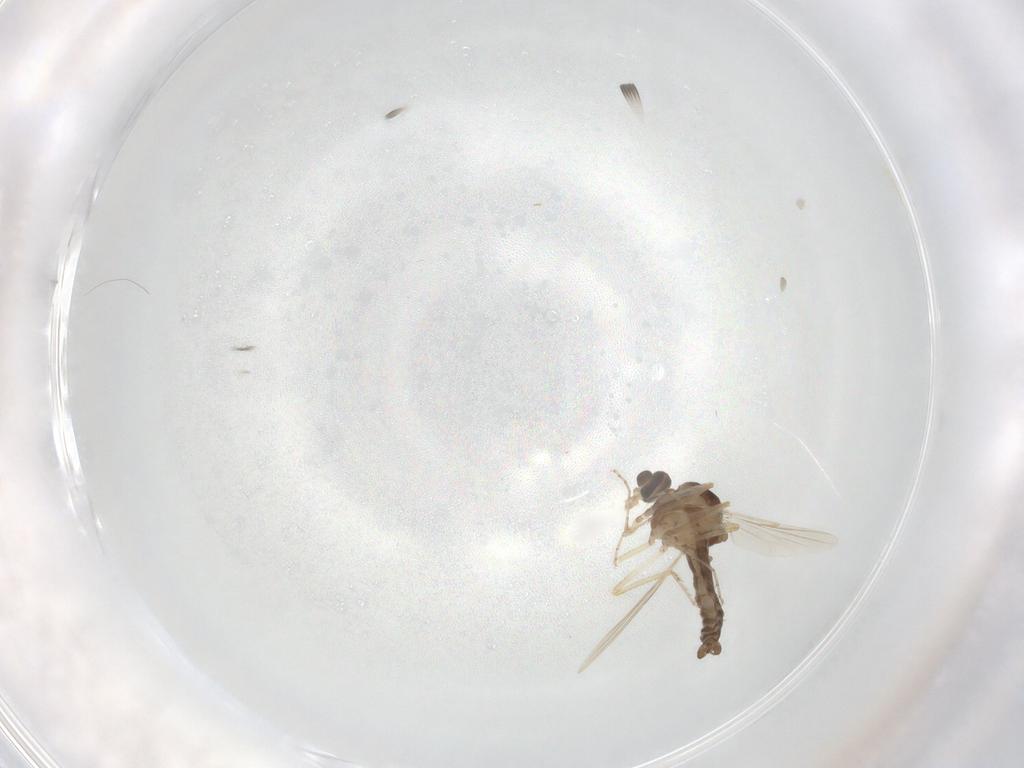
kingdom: Animalia
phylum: Arthropoda
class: Insecta
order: Diptera
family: Ceratopogonidae
